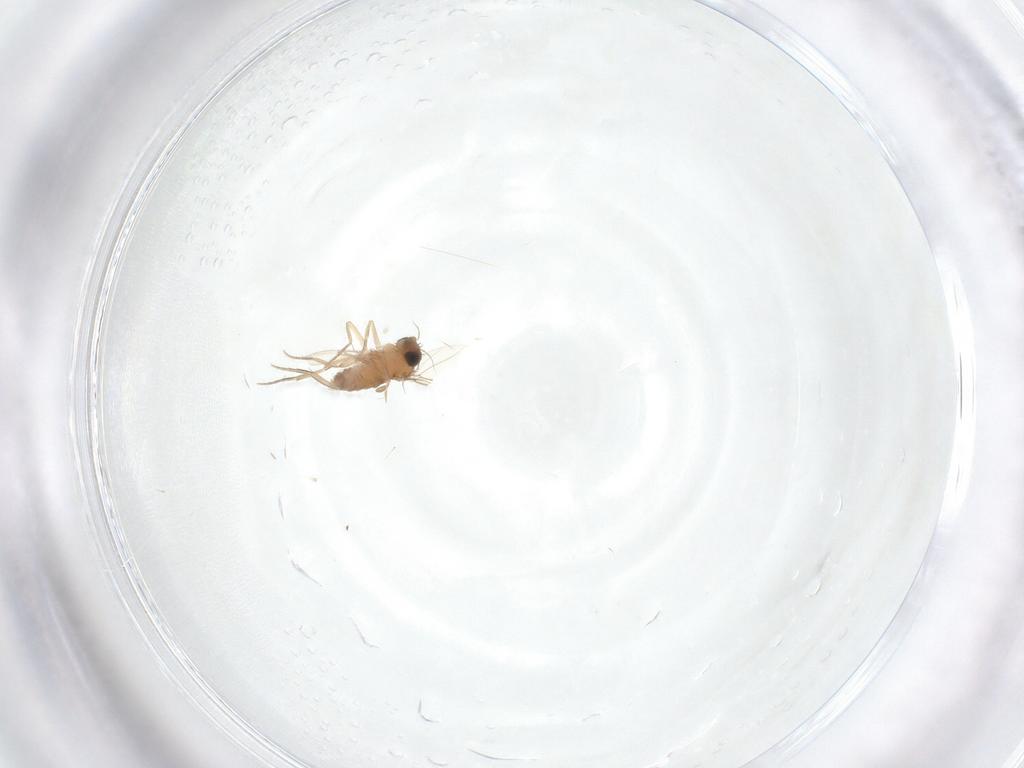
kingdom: Animalia
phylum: Arthropoda
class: Insecta
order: Diptera
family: Phoridae
